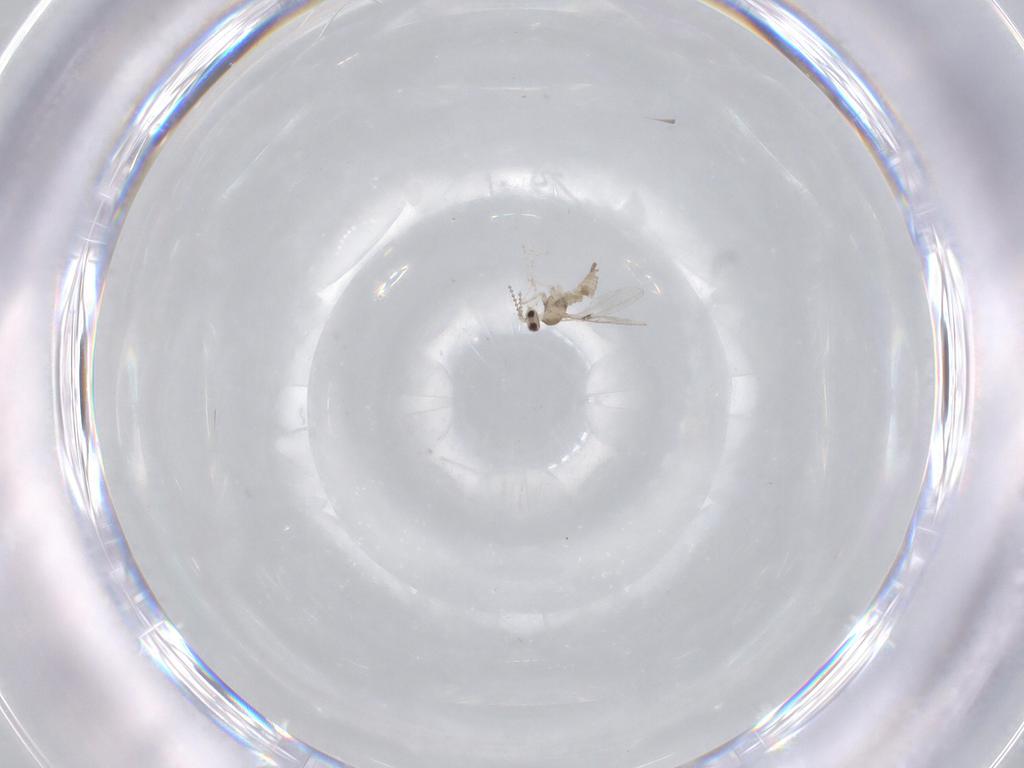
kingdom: Animalia
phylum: Arthropoda
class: Insecta
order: Diptera
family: Cecidomyiidae
